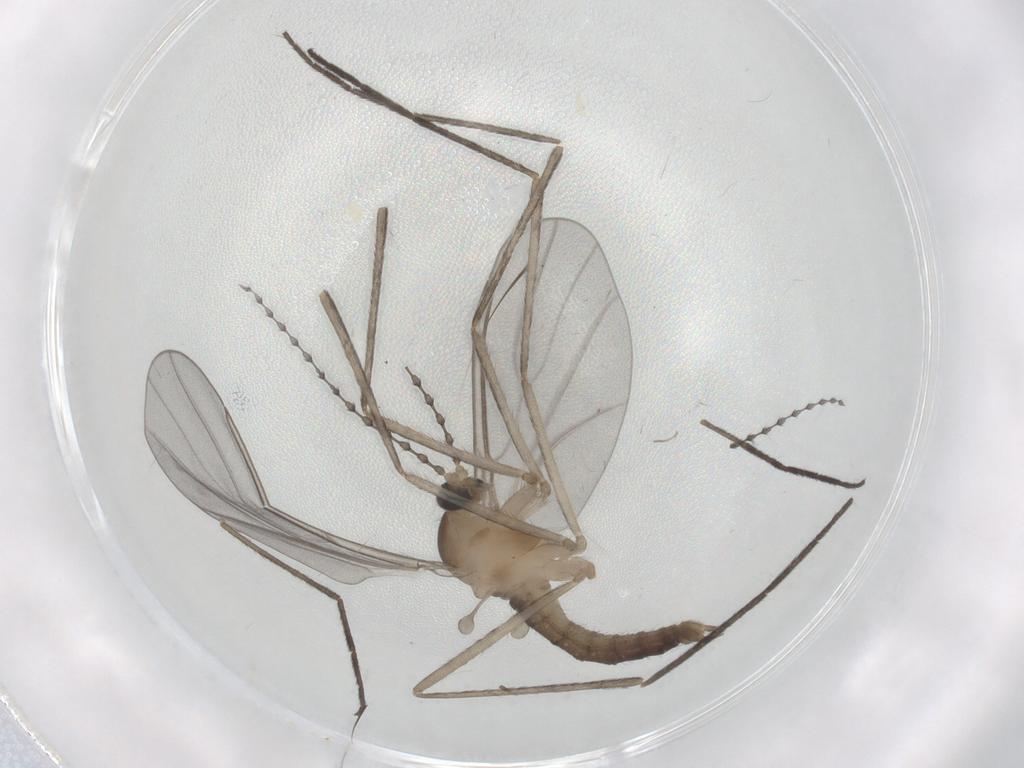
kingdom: Animalia
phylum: Arthropoda
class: Insecta
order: Diptera
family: Cecidomyiidae
